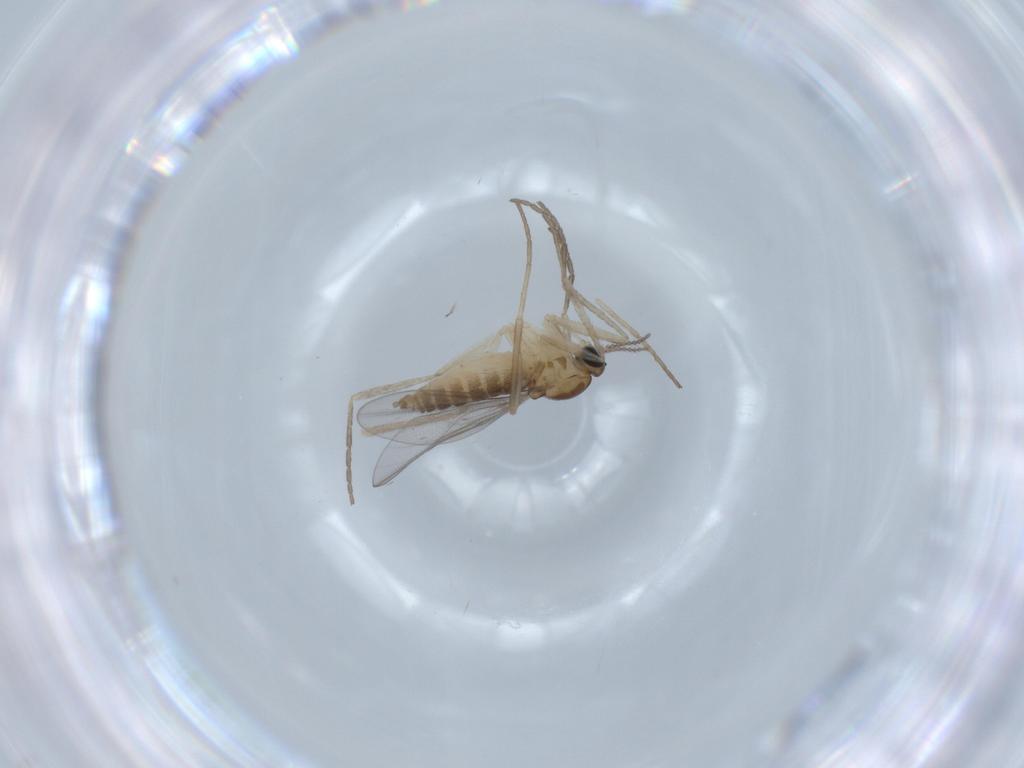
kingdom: Animalia
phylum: Arthropoda
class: Insecta
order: Diptera
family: Cecidomyiidae
